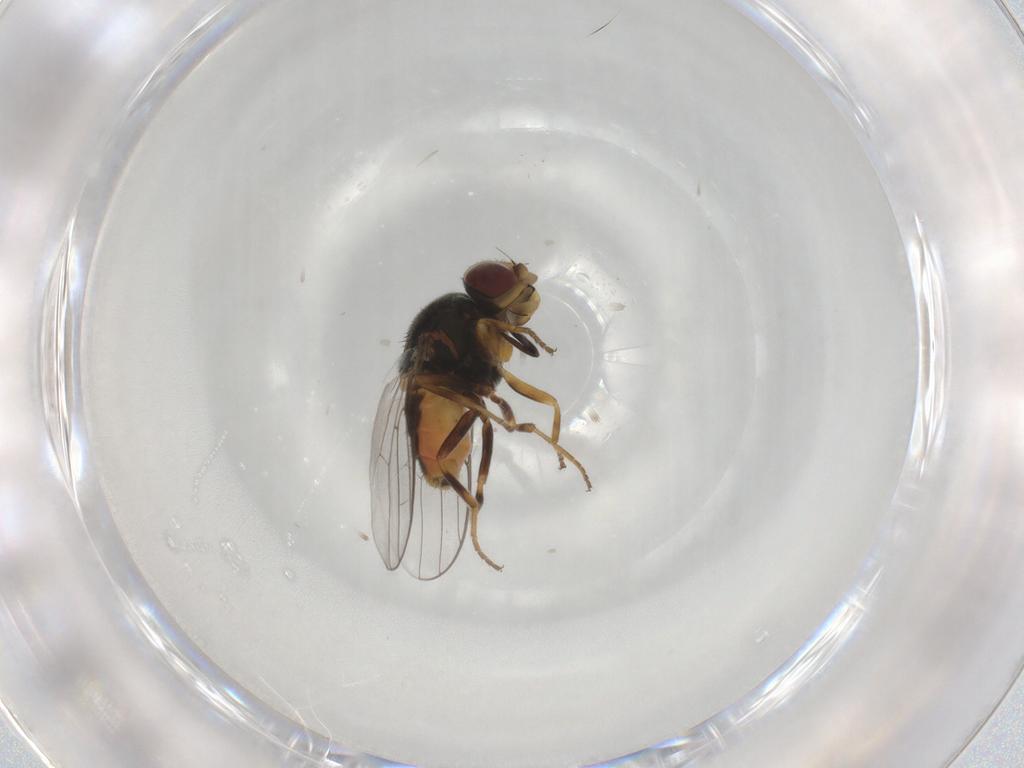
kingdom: Animalia
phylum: Arthropoda
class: Insecta
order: Diptera
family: Chloropidae
